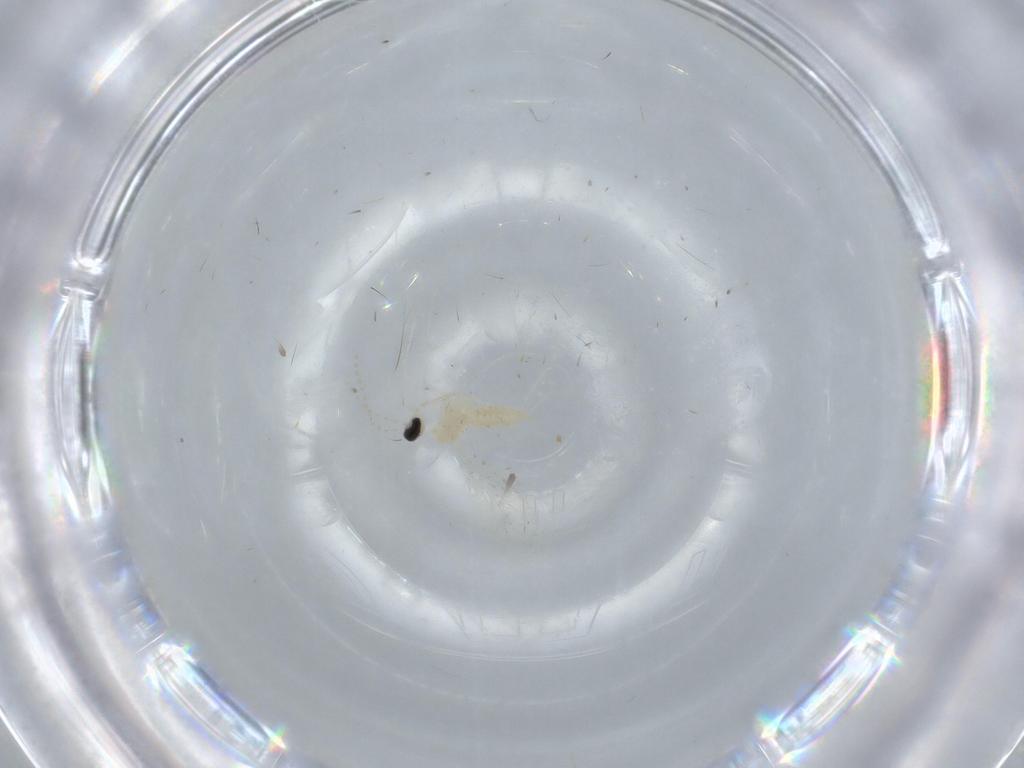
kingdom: Animalia
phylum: Arthropoda
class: Insecta
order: Diptera
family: Cecidomyiidae
